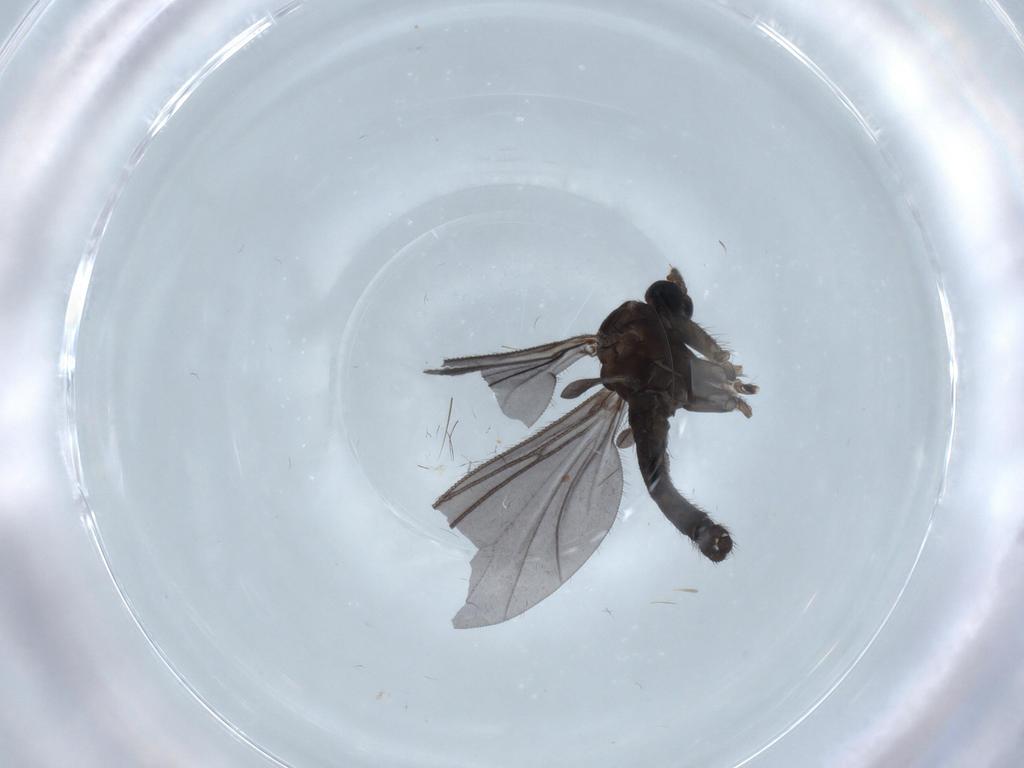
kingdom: Animalia
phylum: Arthropoda
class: Insecta
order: Diptera
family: Sciaridae
